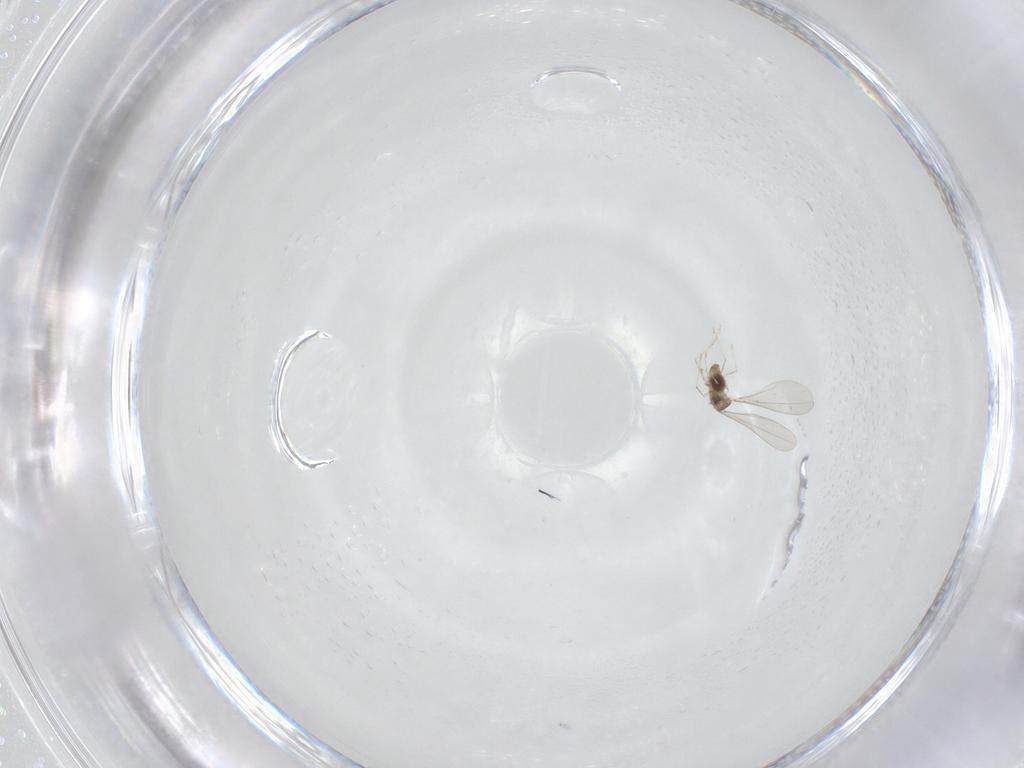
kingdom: Animalia
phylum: Arthropoda
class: Insecta
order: Diptera
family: Cecidomyiidae
